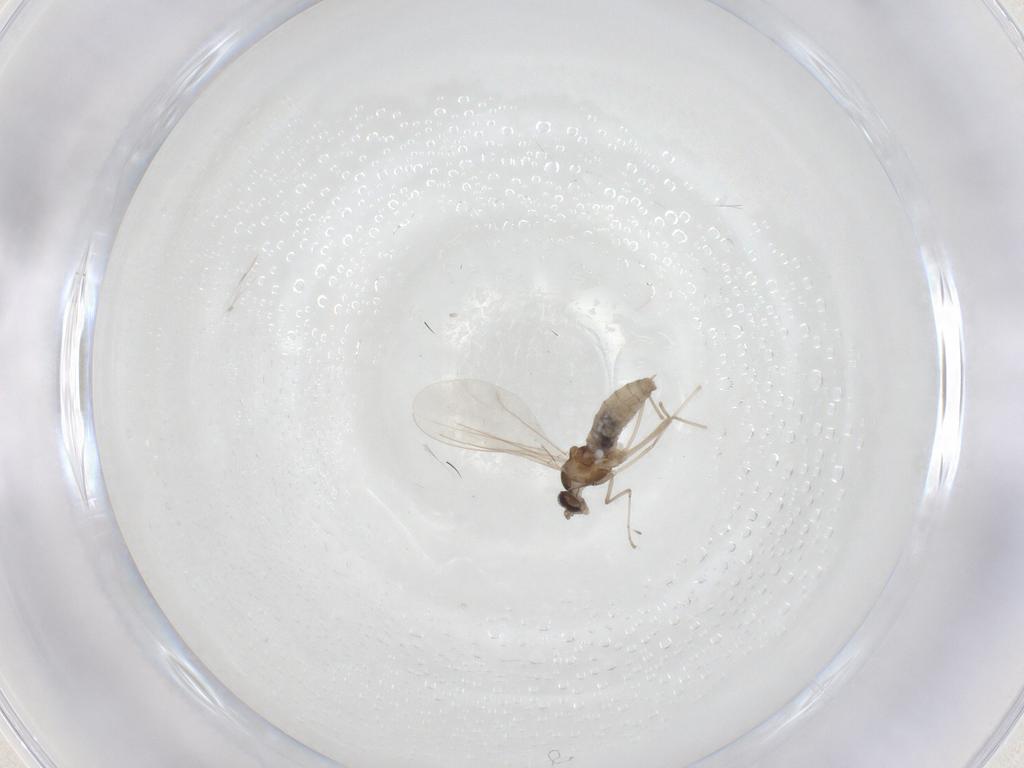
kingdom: Animalia
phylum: Arthropoda
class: Insecta
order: Diptera
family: Cecidomyiidae
